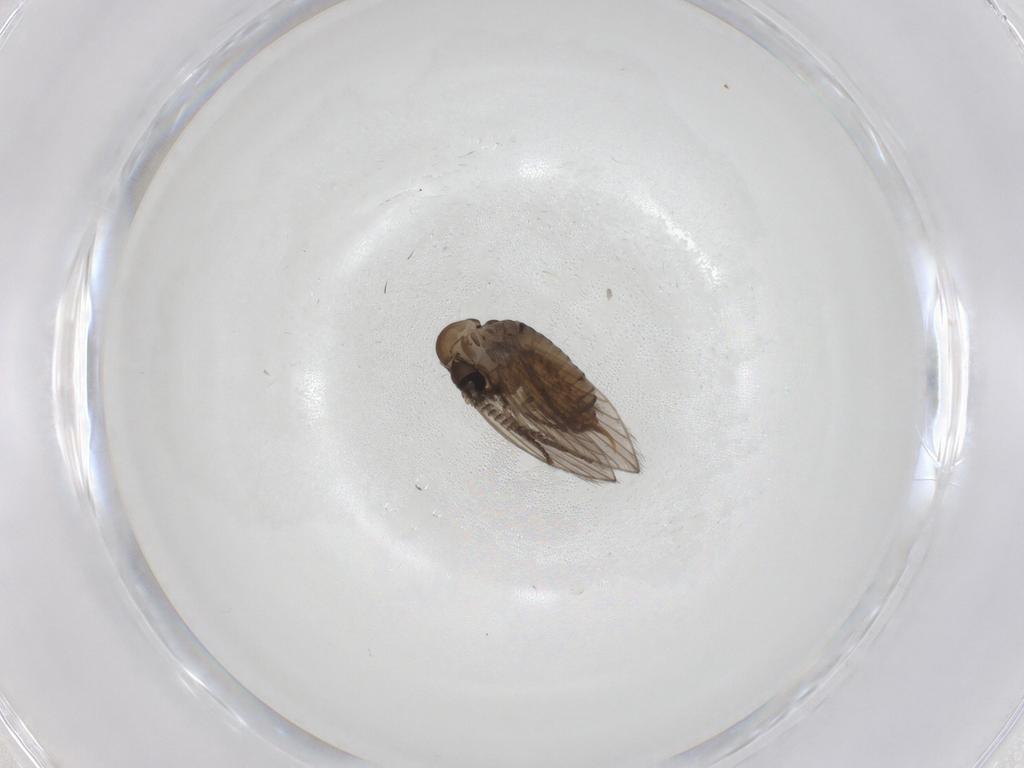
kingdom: Animalia
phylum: Arthropoda
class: Insecta
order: Diptera
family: Psychodidae
